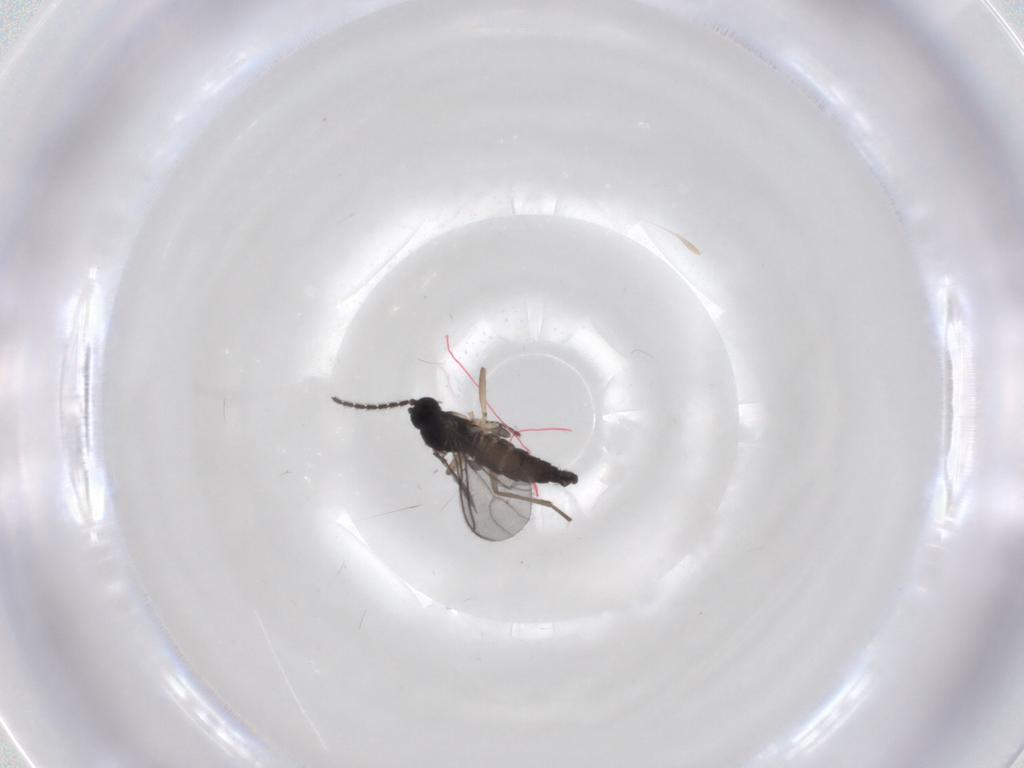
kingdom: Animalia
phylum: Arthropoda
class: Insecta
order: Diptera
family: Sciaridae
